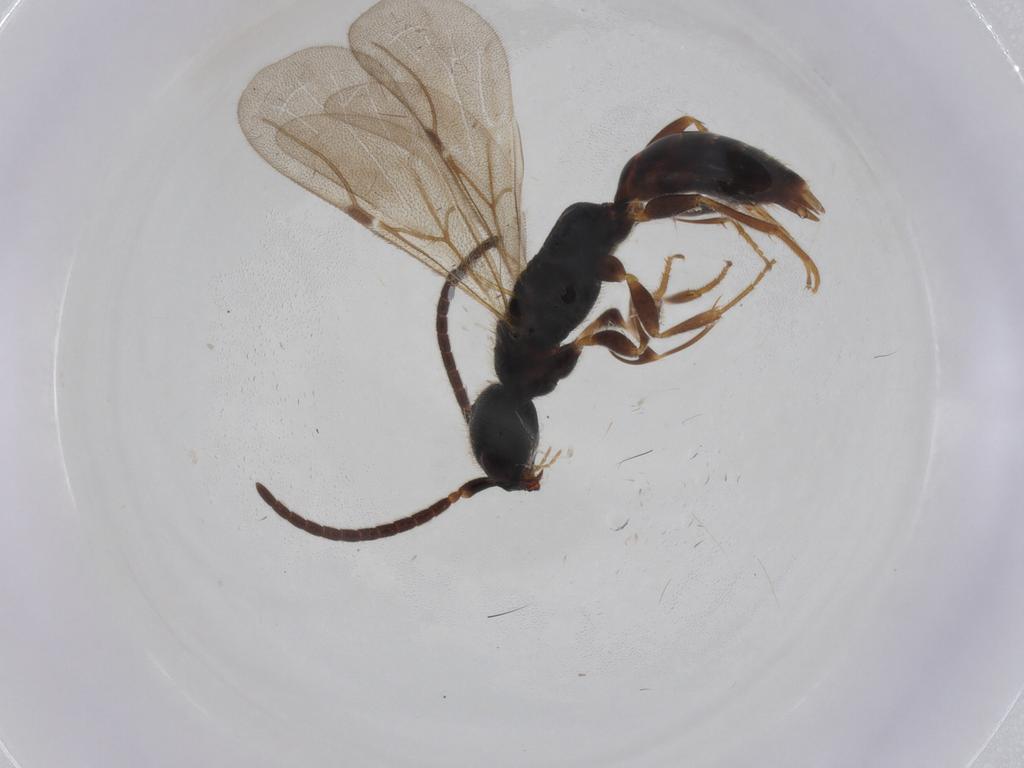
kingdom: Animalia
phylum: Arthropoda
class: Insecta
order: Hymenoptera
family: Bethylidae
